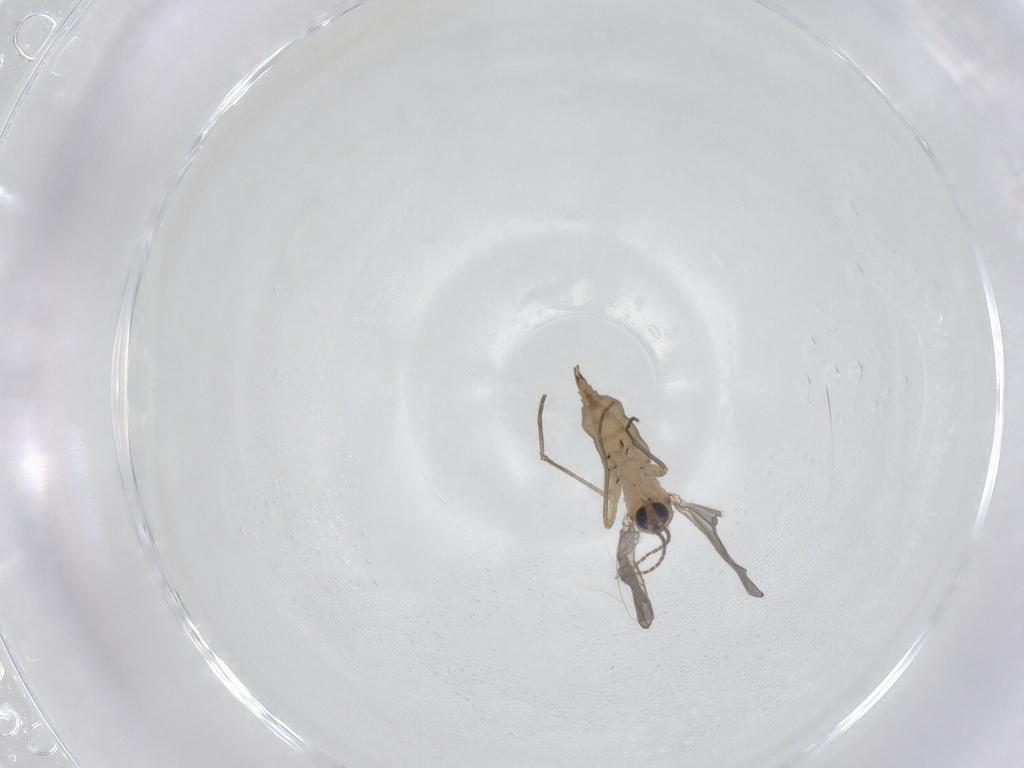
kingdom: Animalia
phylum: Arthropoda
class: Insecta
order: Diptera
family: Sciaridae
